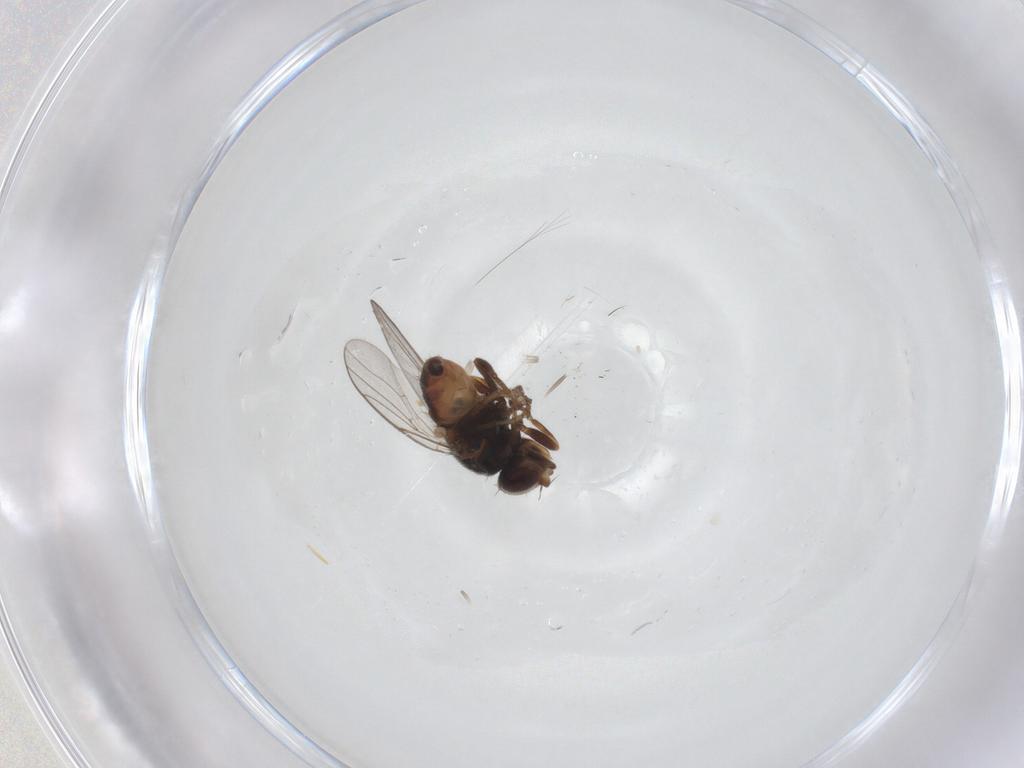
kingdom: Animalia
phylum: Arthropoda
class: Insecta
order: Diptera
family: Chloropidae
